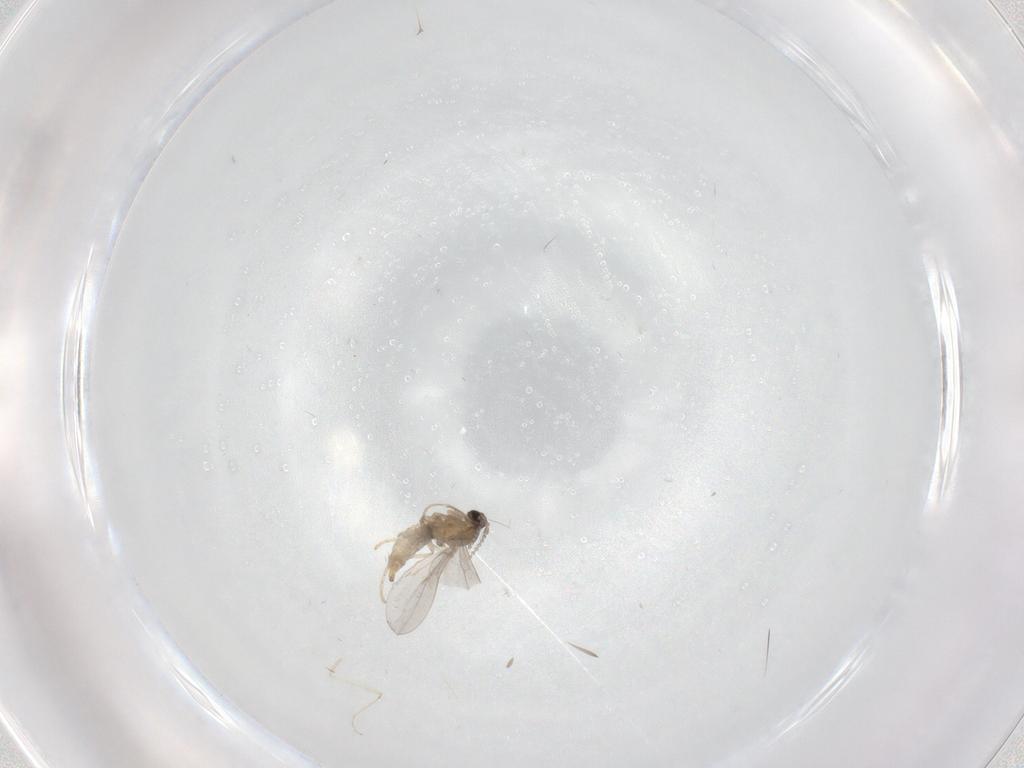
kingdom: Animalia
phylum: Arthropoda
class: Insecta
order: Diptera
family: Cecidomyiidae
